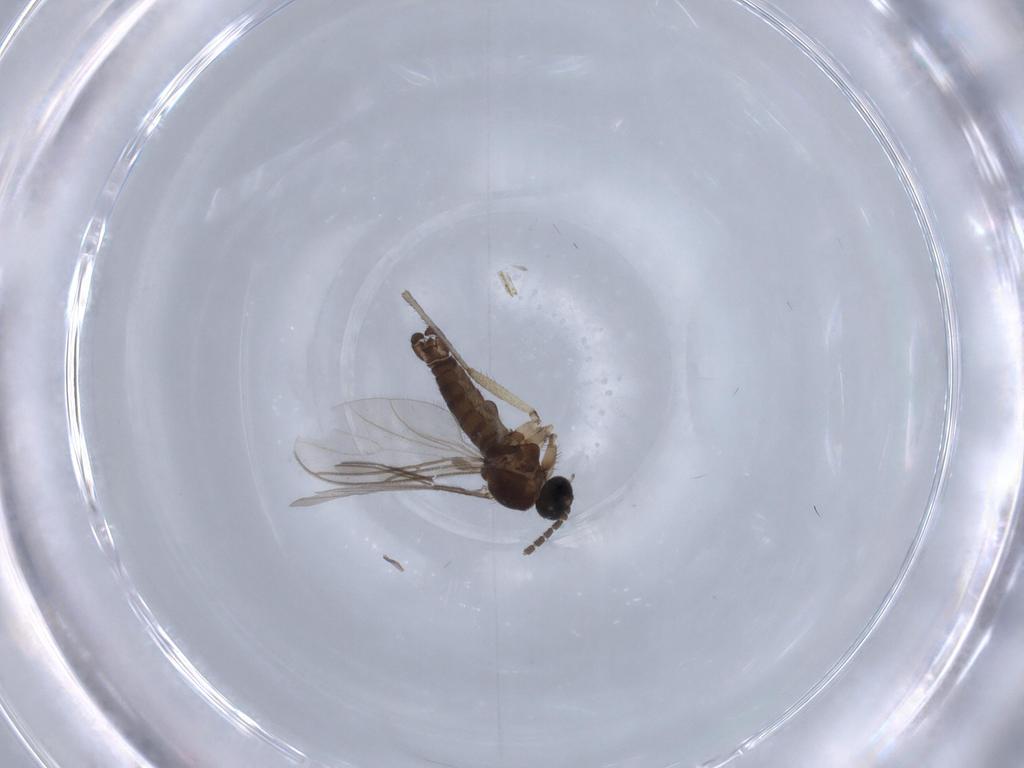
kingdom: Animalia
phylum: Arthropoda
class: Insecta
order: Diptera
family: Sciaridae
